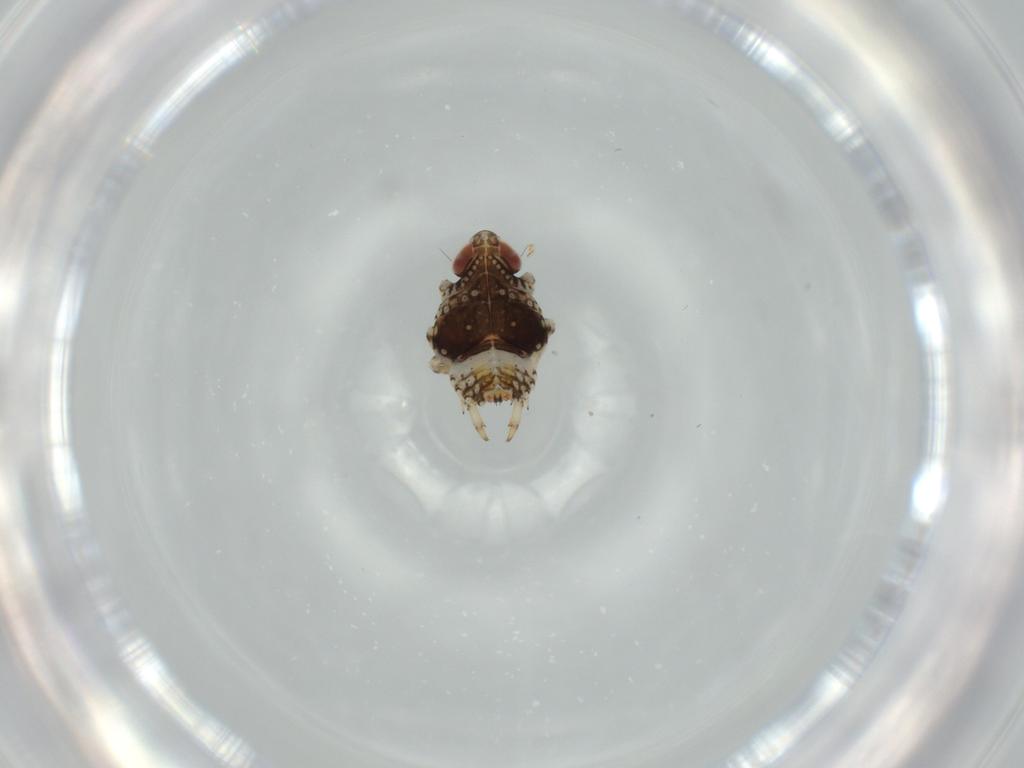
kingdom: Animalia
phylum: Arthropoda
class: Insecta
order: Hemiptera
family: Issidae
